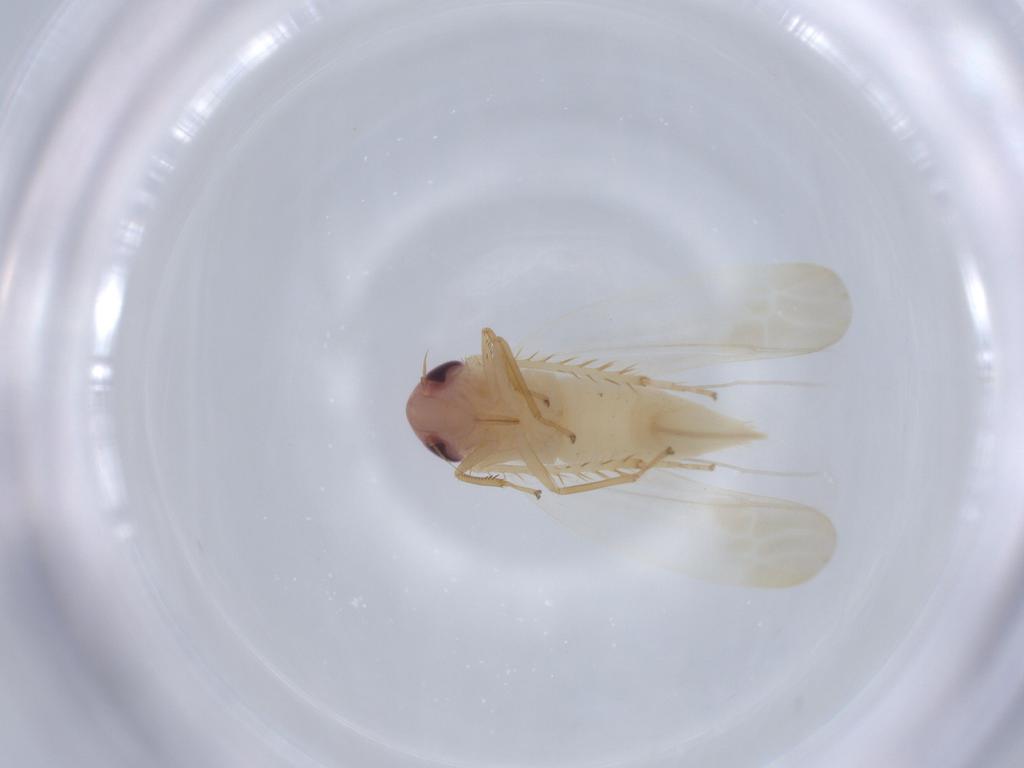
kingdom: Animalia
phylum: Arthropoda
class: Insecta
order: Hemiptera
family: Cicadellidae
